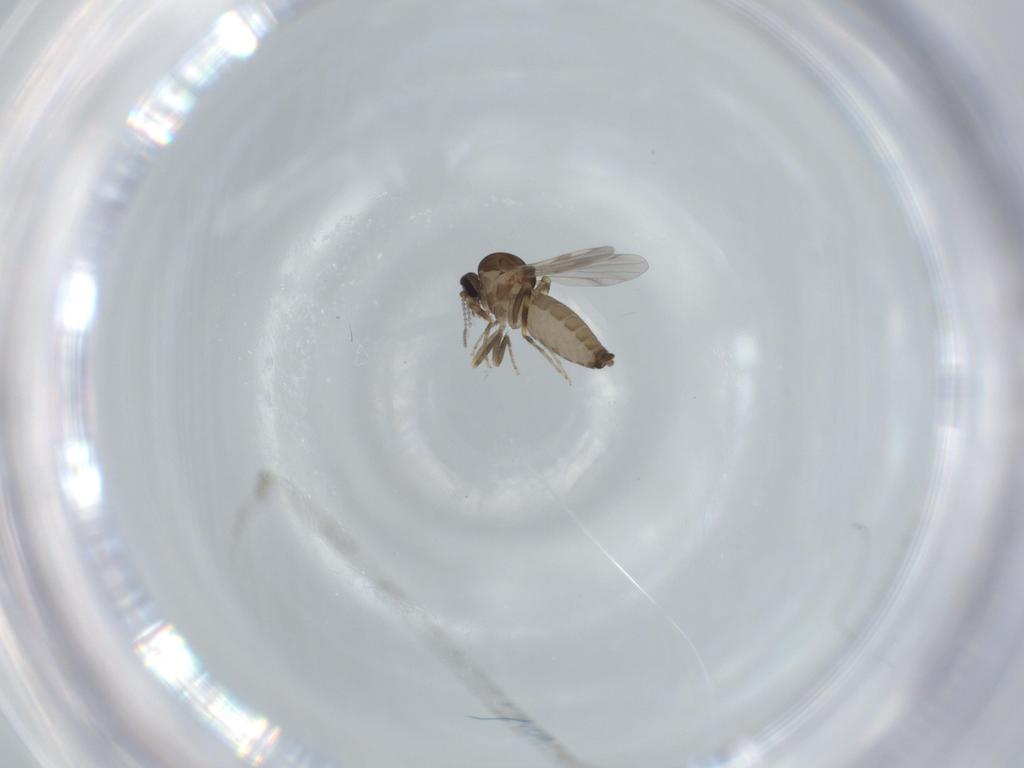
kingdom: Animalia
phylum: Arthropoda
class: Insecta
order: Diptera
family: Ceratopogonidae
